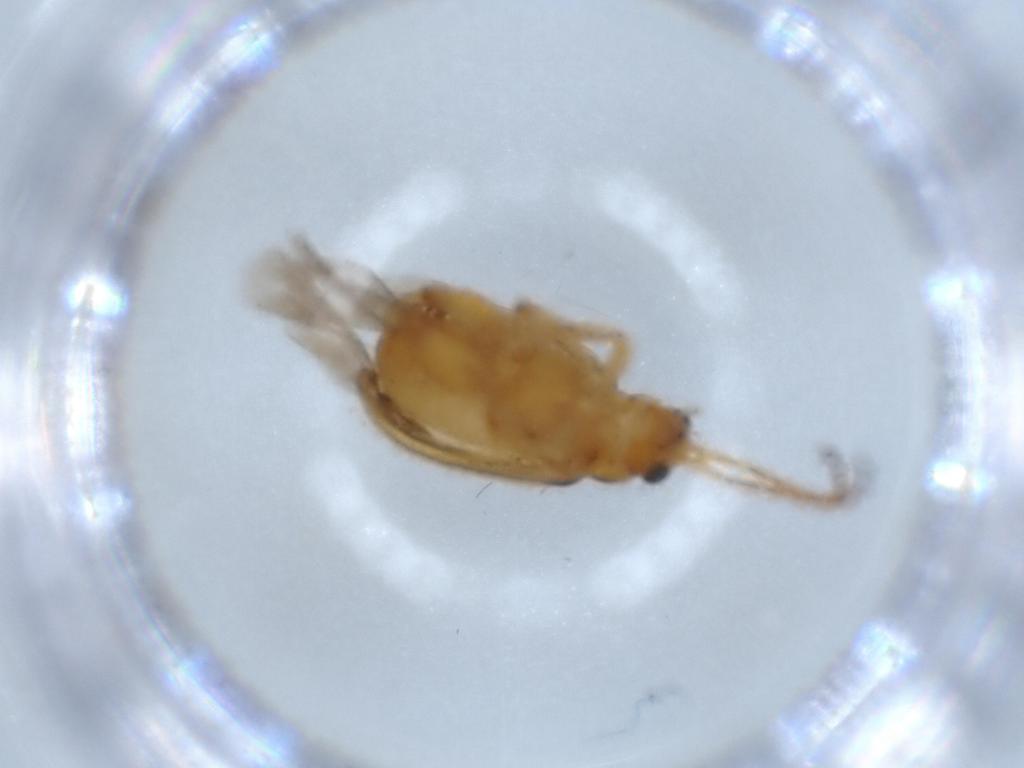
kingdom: Animalia
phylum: Arthropoda
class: Insecta
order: Coleoptera
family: Chrysomelidae
